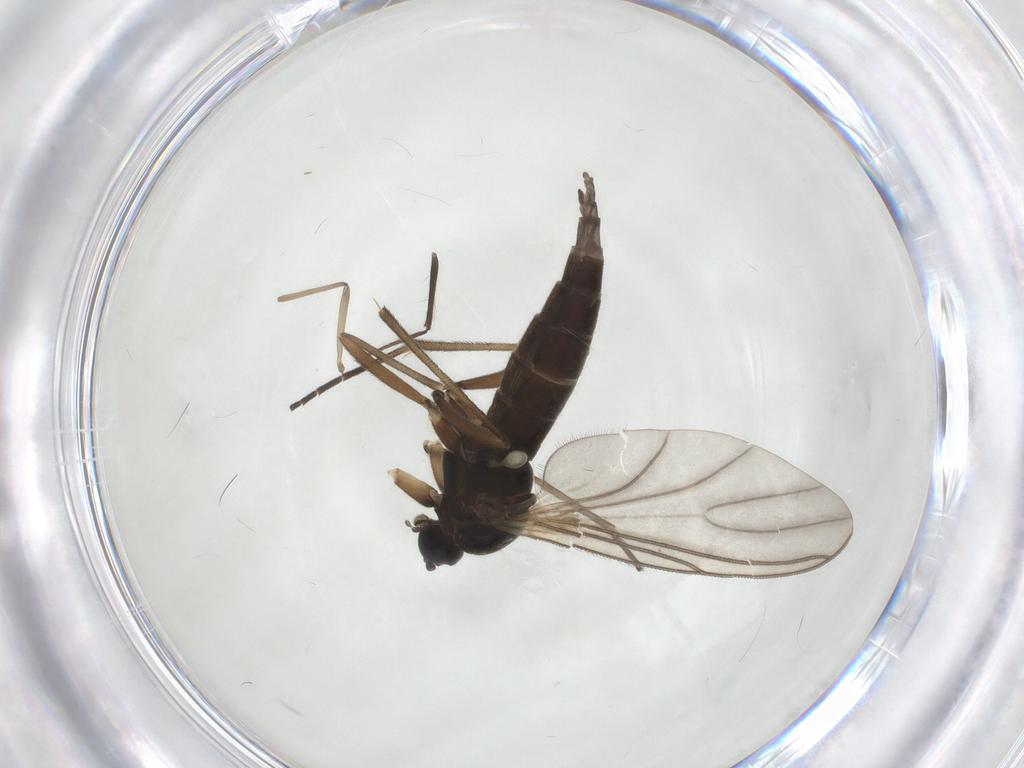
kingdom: Animalia
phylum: Arthropoda
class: Insecta
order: Diptera
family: Sciaridae
